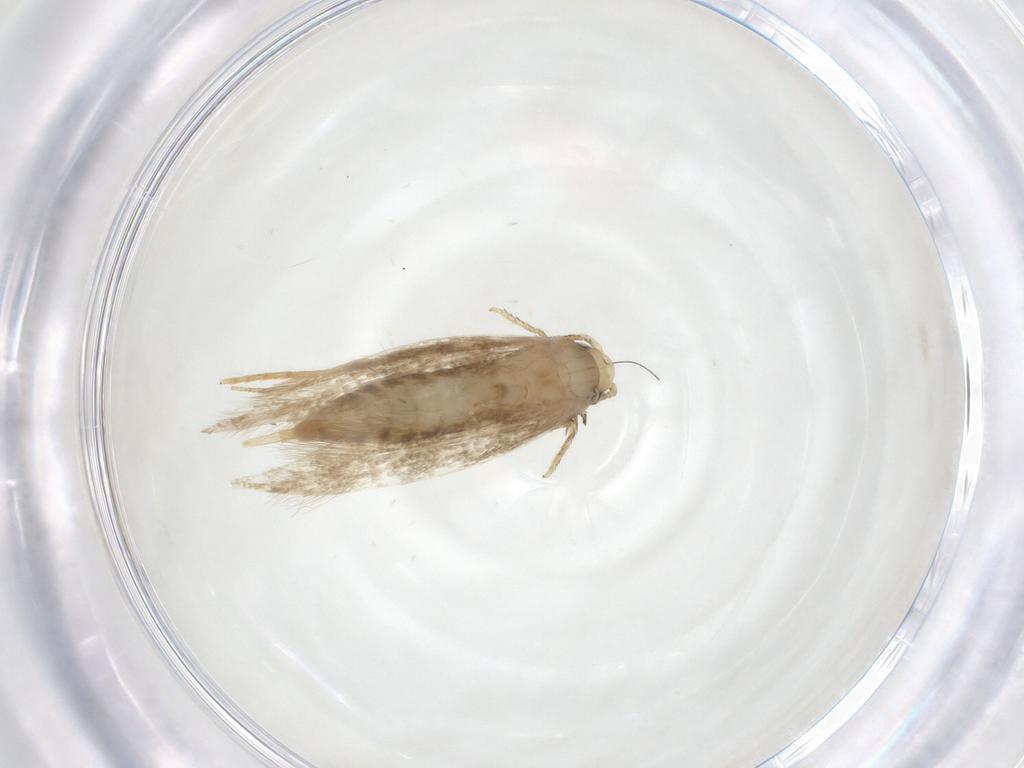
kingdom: Animalia
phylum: Arthropoda
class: Insecta
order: Lepidoptera
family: Tineidae
